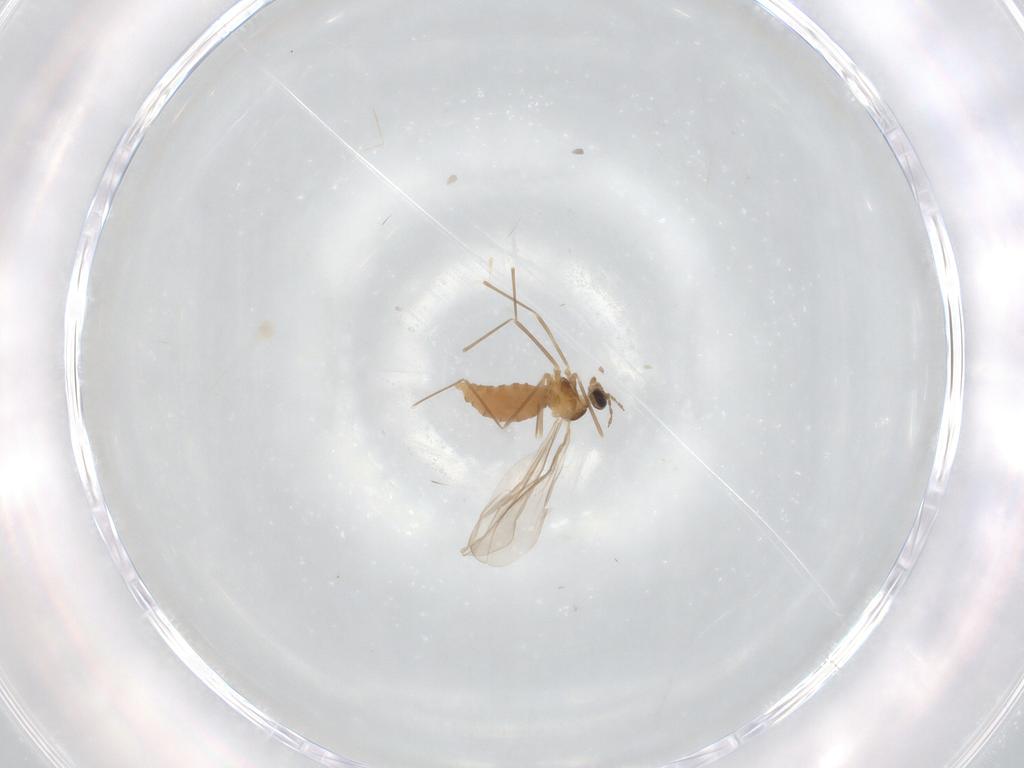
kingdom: Animalia
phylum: Arthropoda
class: Insecta
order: Diptera
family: Cecidomyiidae
